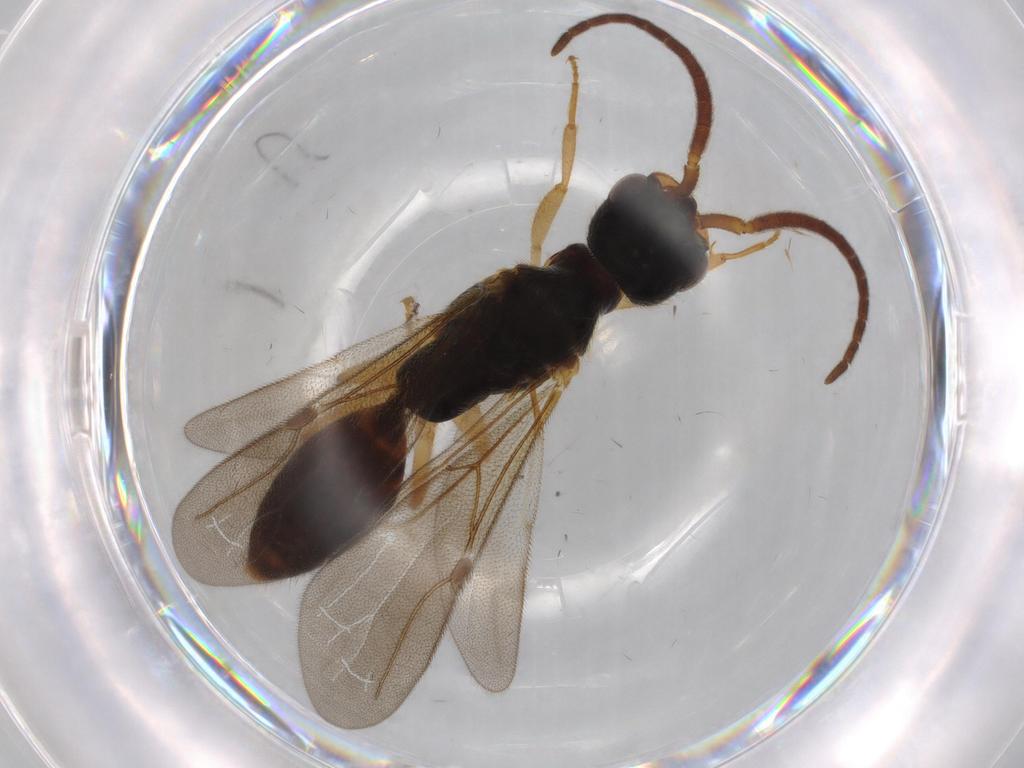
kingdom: Animalia
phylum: Arthropoda
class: Insecta
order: Hymenoptera
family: Bethylidae
